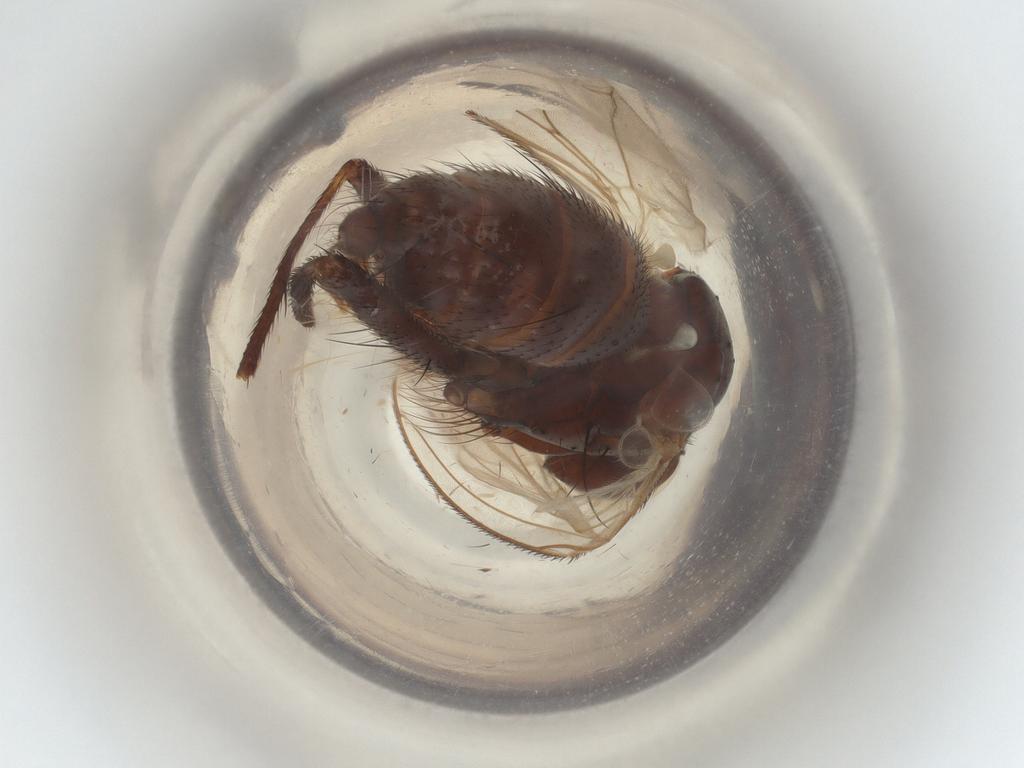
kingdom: Animalia
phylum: Arthropoda
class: Insecta
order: Diptera
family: Muscidae
